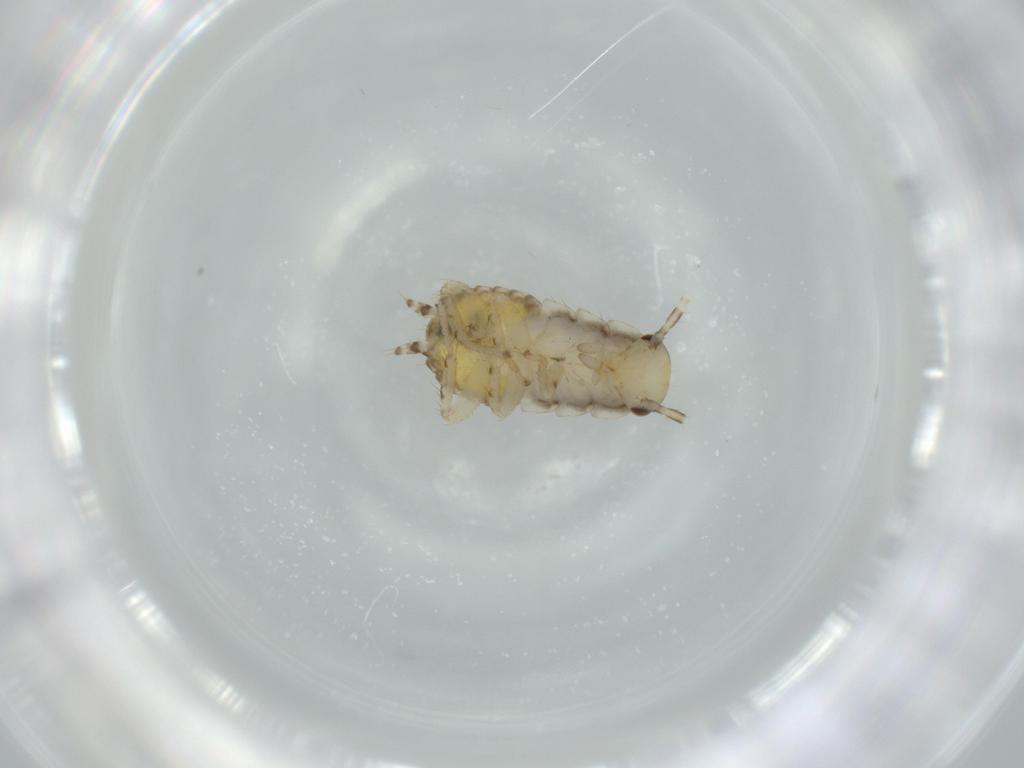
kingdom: Animalia
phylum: Arthropoda
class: Insecta
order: Blattodea
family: Ectobiidae
